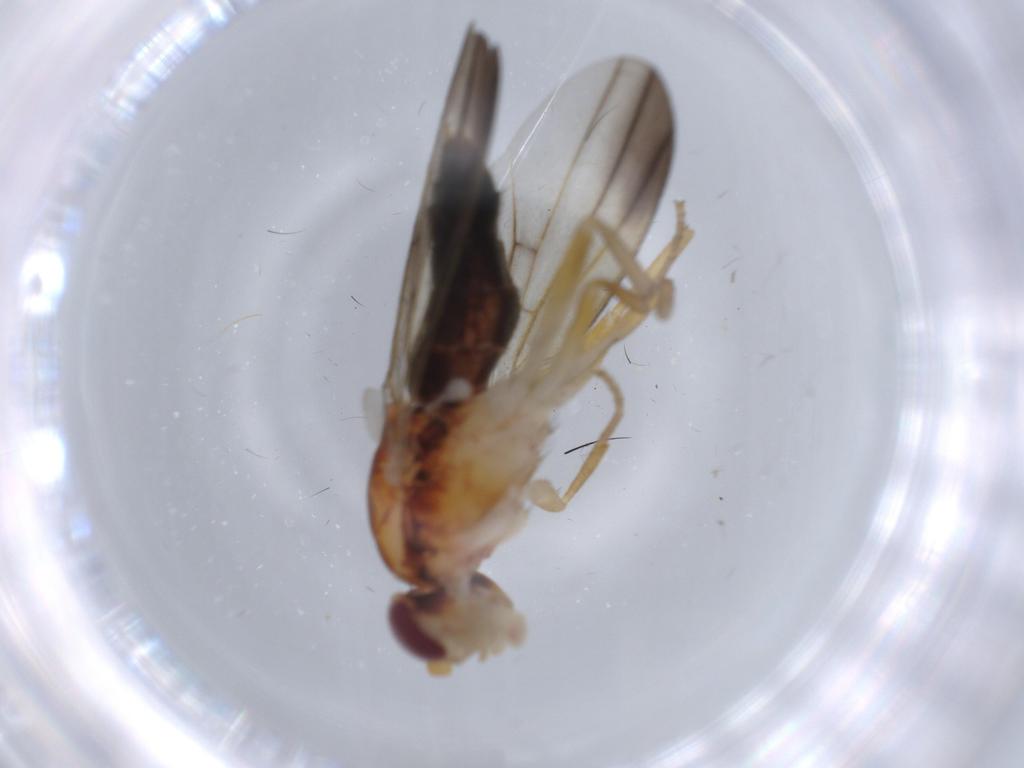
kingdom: Animalia
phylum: Arthropoda
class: Insecta
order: Diptera
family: Clusiidae
